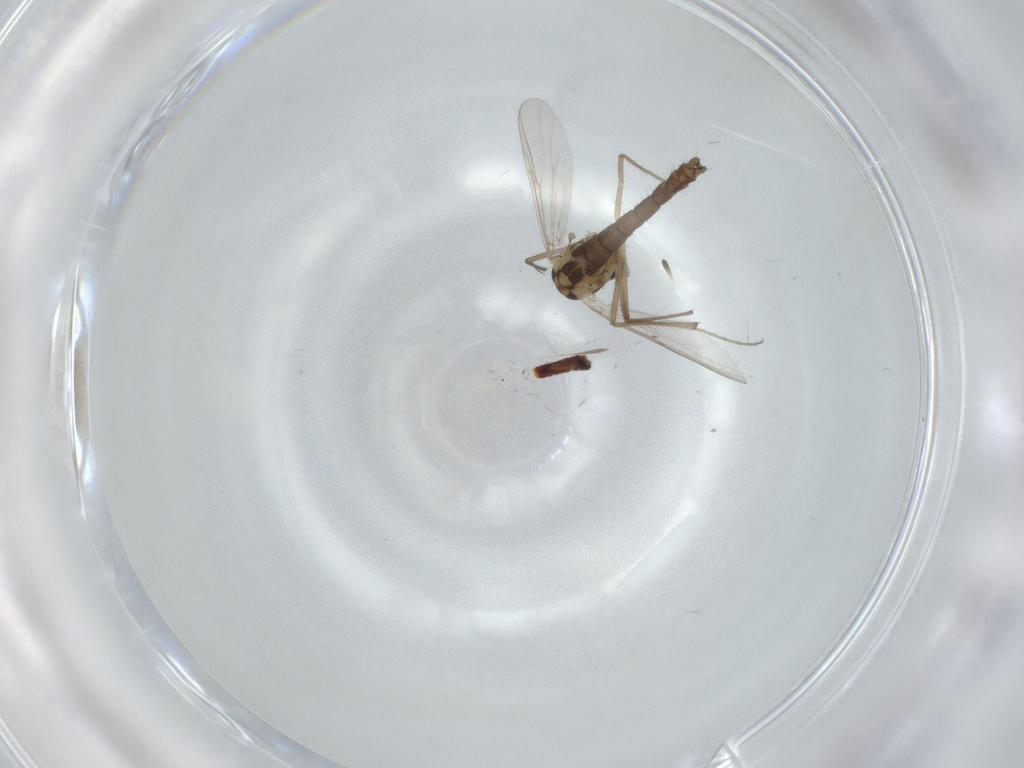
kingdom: Animalia
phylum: Arthropoda
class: Insecta
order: Diptera
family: Chironomidae
